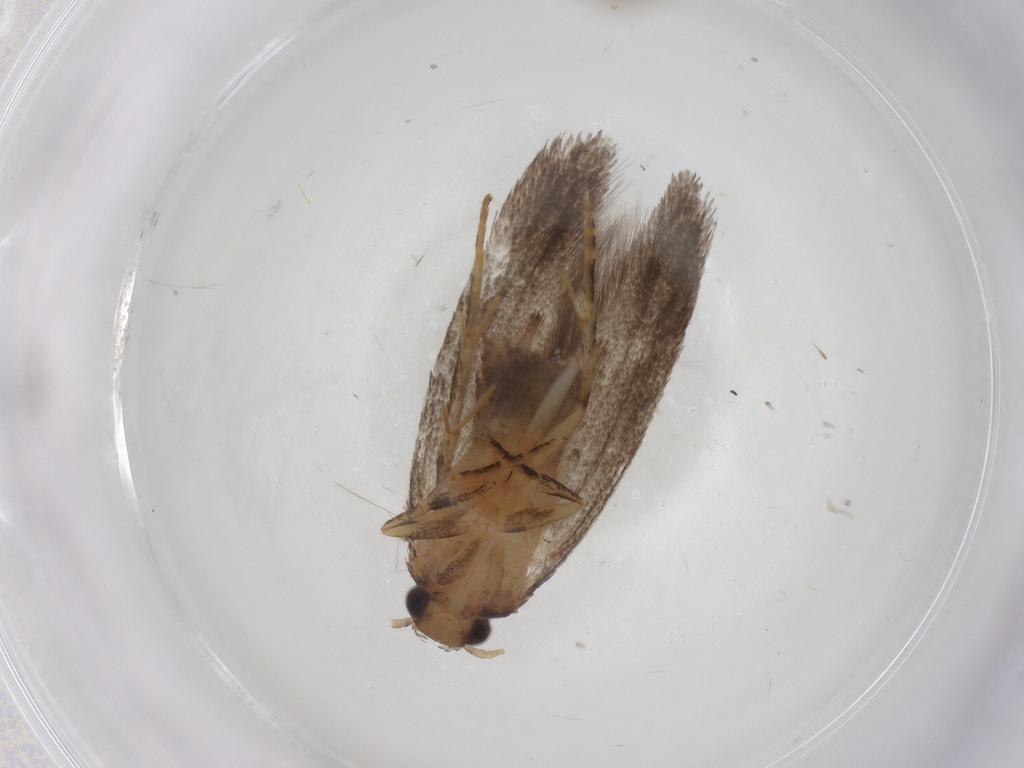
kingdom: Animalia
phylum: Arthropoda
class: Insecta
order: Lepidoptera
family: Oecophoridae
